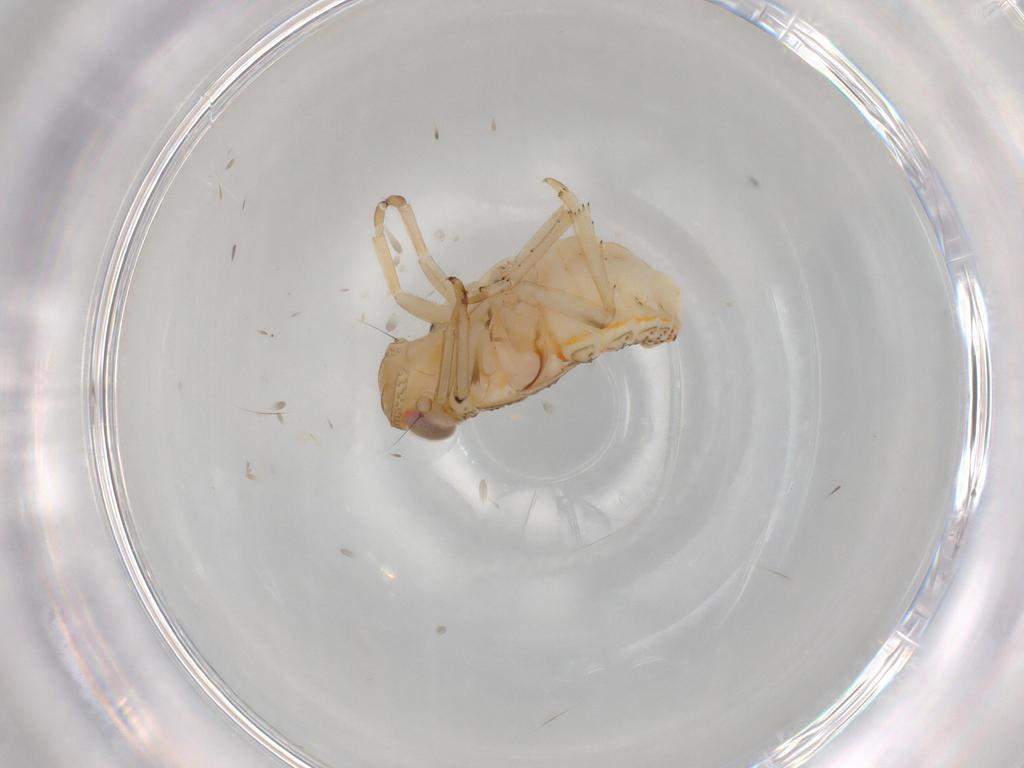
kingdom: Animalia
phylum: Arthropoda
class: Insecta
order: Hemiptera
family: Issidae
